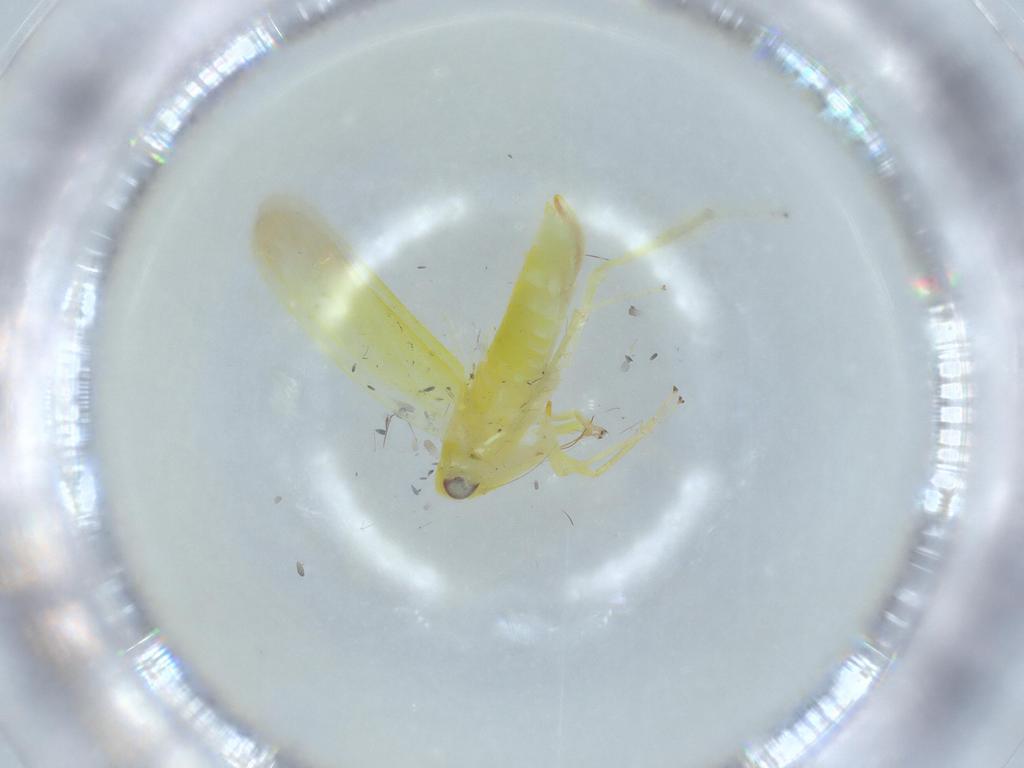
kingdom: Animalia
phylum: Arthropoda
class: Insecta
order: Hemiptera
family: Cicadellidae
